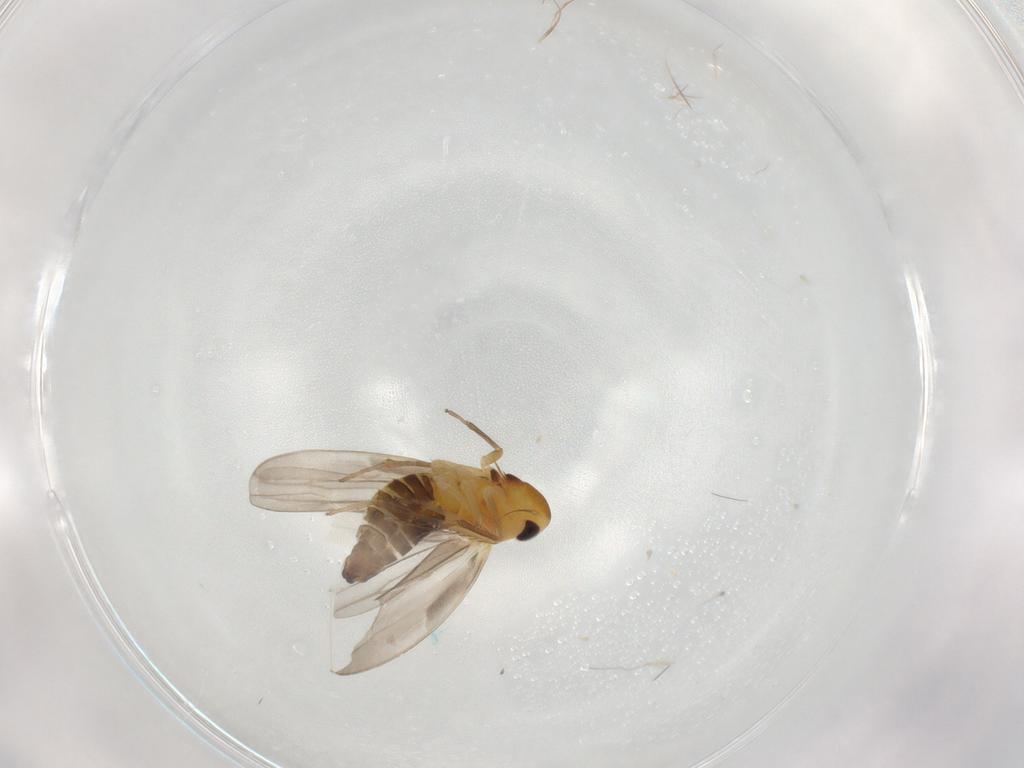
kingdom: Animalia
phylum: Arthropoda
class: Insecta
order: Hemiptera
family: Cicadellidae
